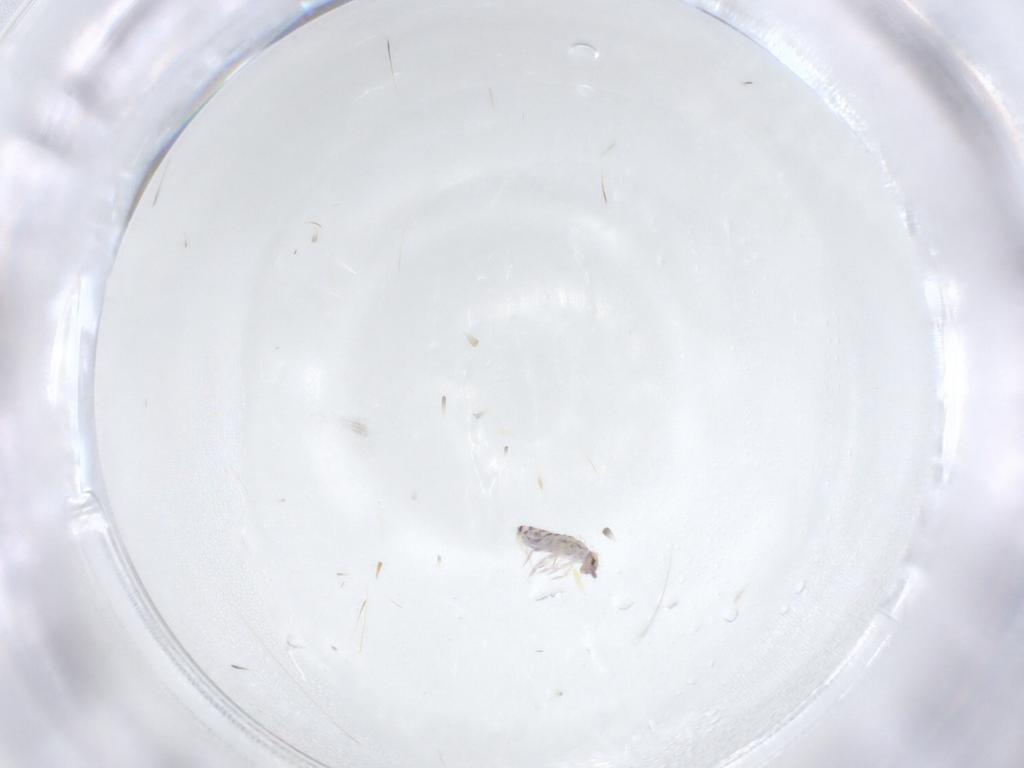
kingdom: Animalia
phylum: Arthropoda
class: Collembola
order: Entomobryomorpha
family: Entomobryidae
